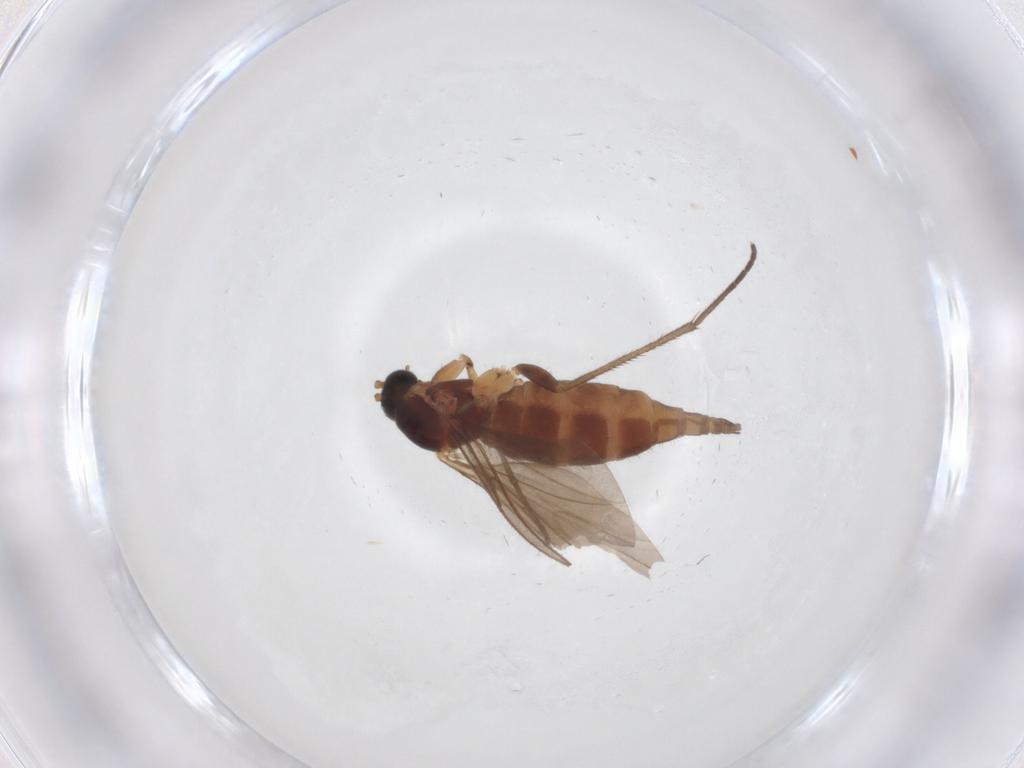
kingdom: Animalia
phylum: Arthropoda
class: Insecta
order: Diptera
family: Sciaridae
